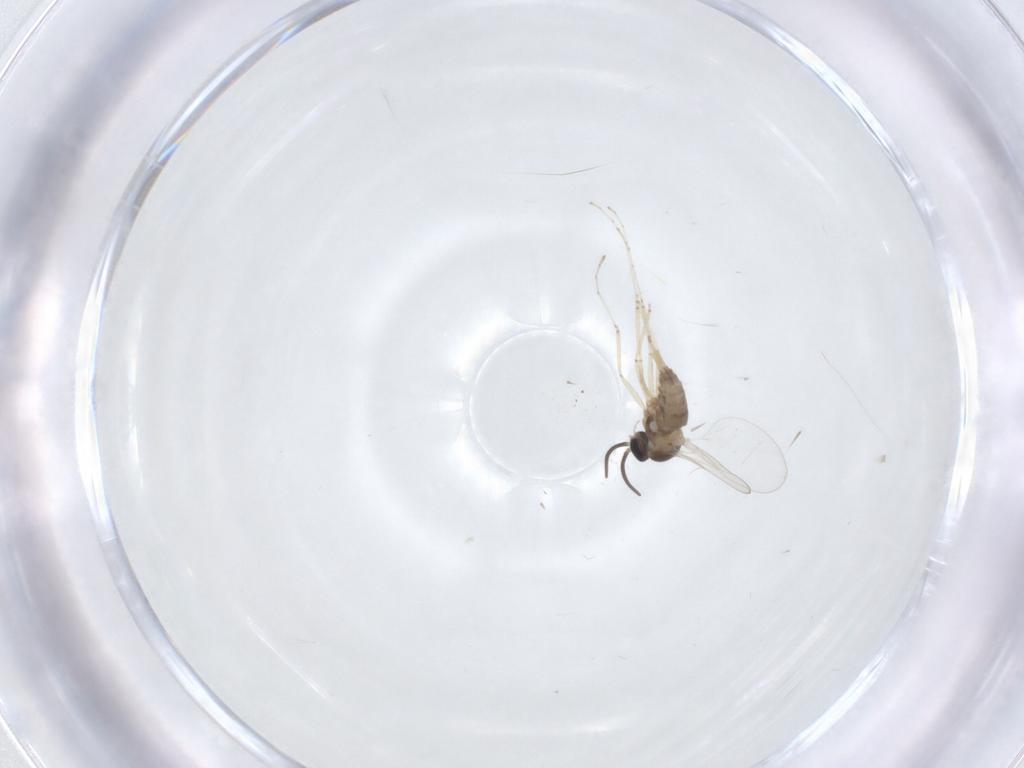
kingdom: Animalia
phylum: Arthropoda
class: Insecta
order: Diptera
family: Cecidomyiidae
